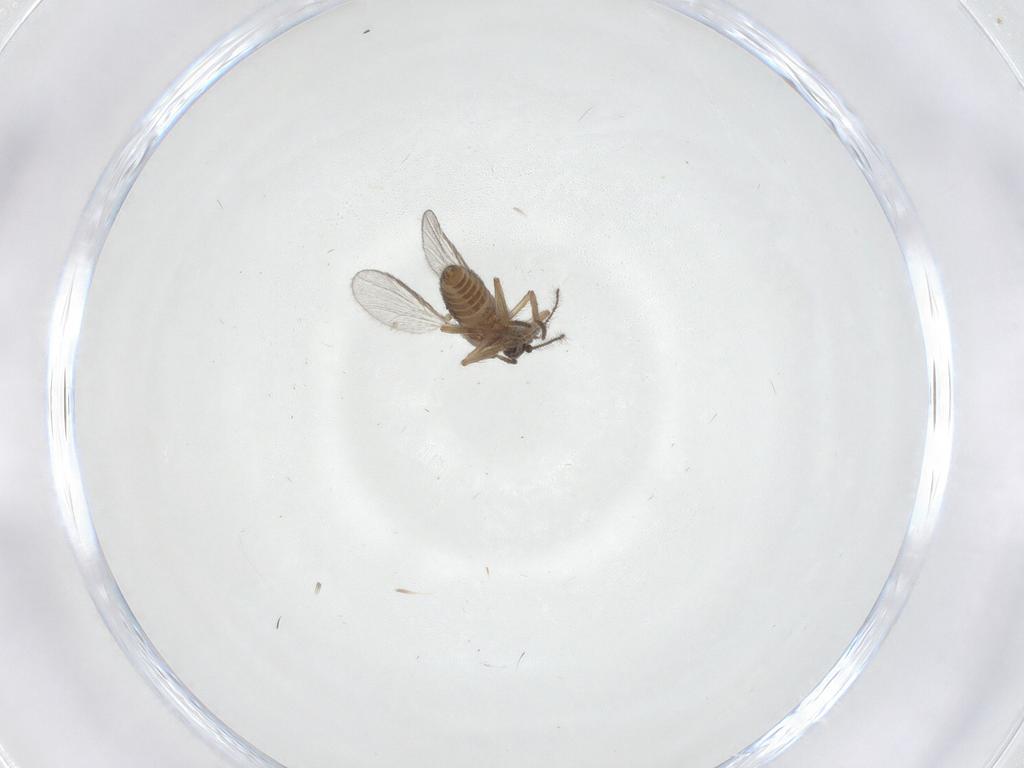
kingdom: Animalia
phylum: Arthropoda
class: Insecta
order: Diptera
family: Ceratopogonidae
